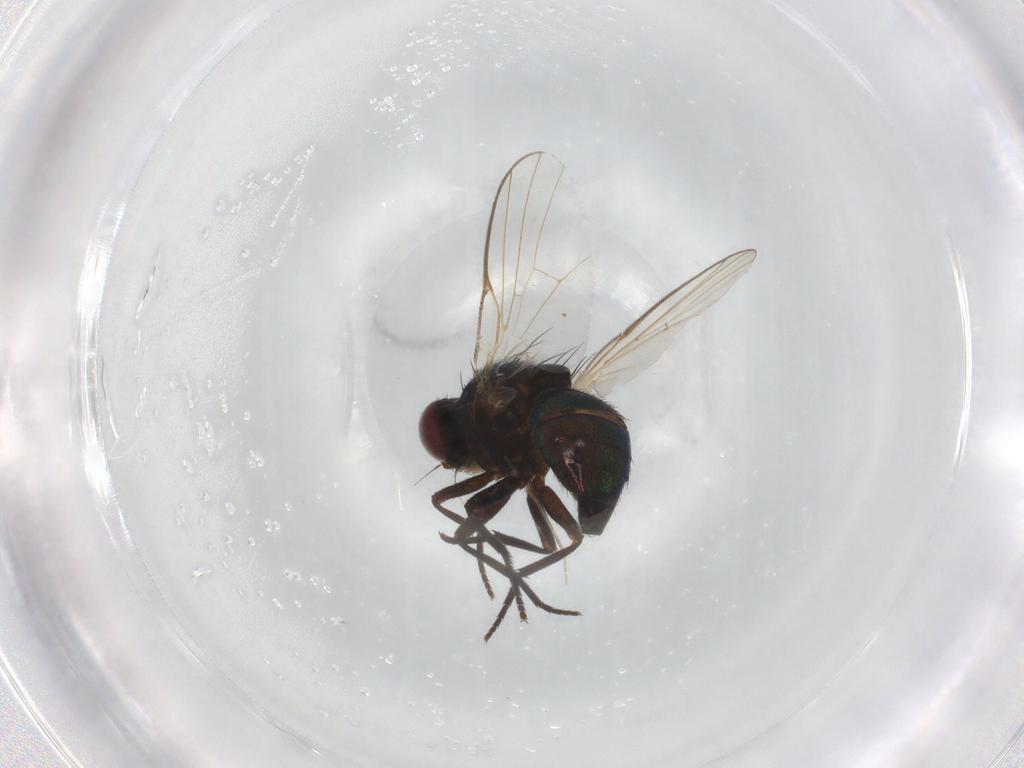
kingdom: Animalia
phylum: Arthropoda
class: Insecta
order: Diptera
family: Agromyzidae
